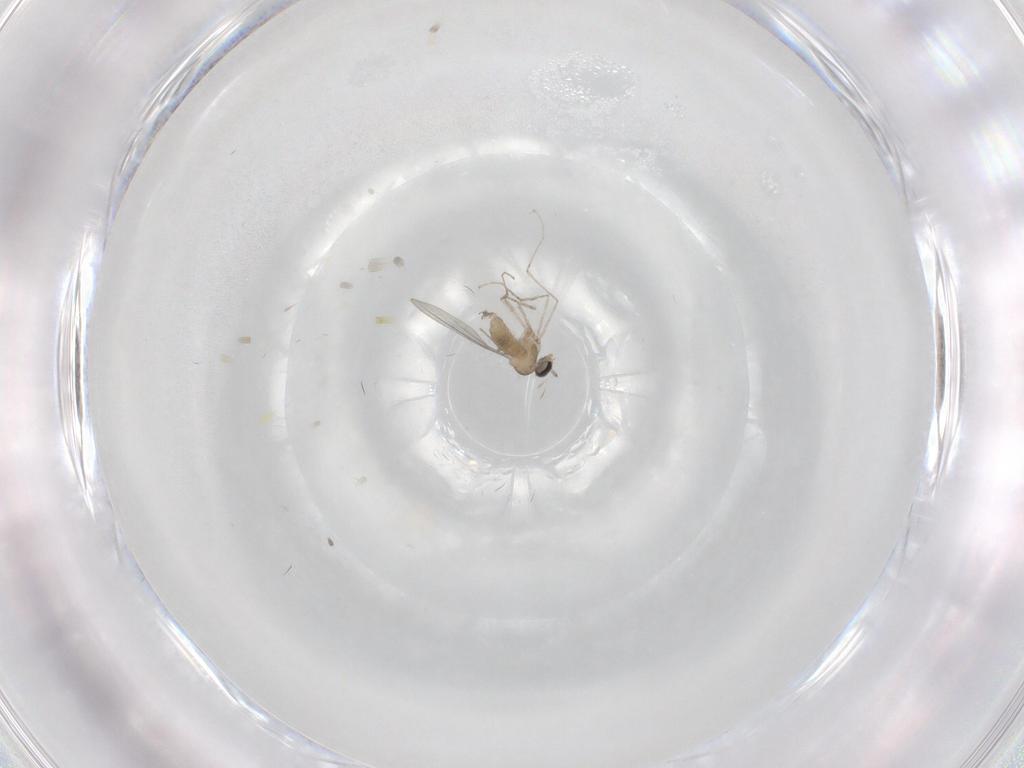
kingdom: Animalia
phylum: Arthropoda
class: Insecta
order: Diptera
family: Cecidomyiidae
